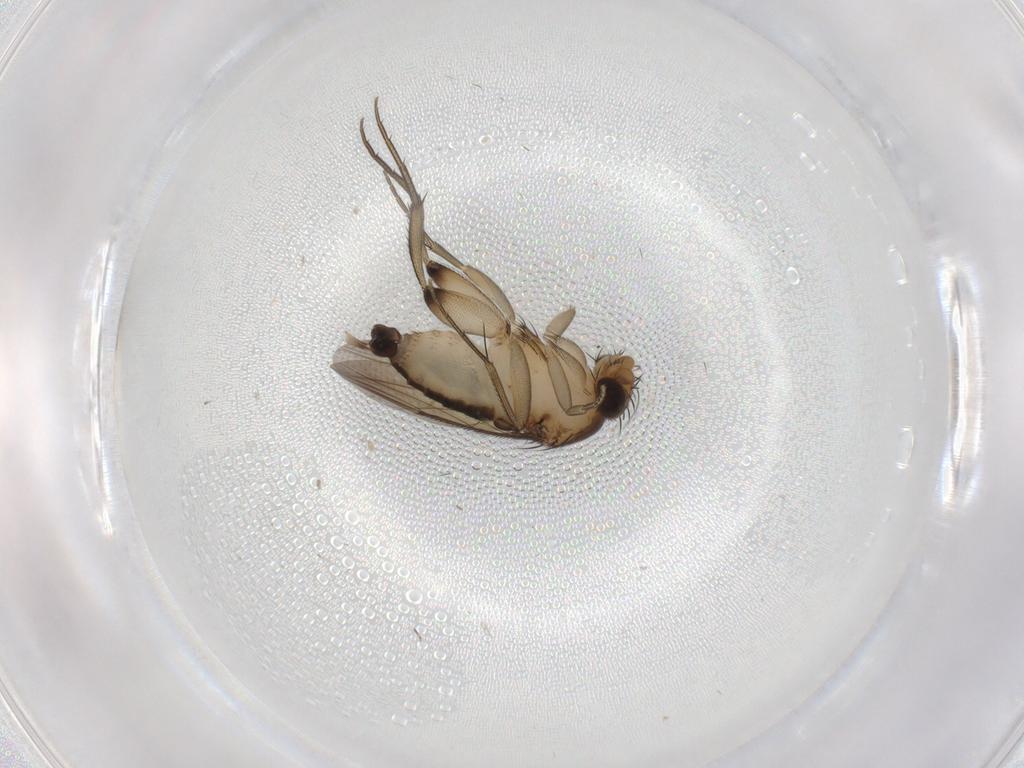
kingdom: Animalia
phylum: Arthropoda
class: Insecta
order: Diptera
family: Phoridae
